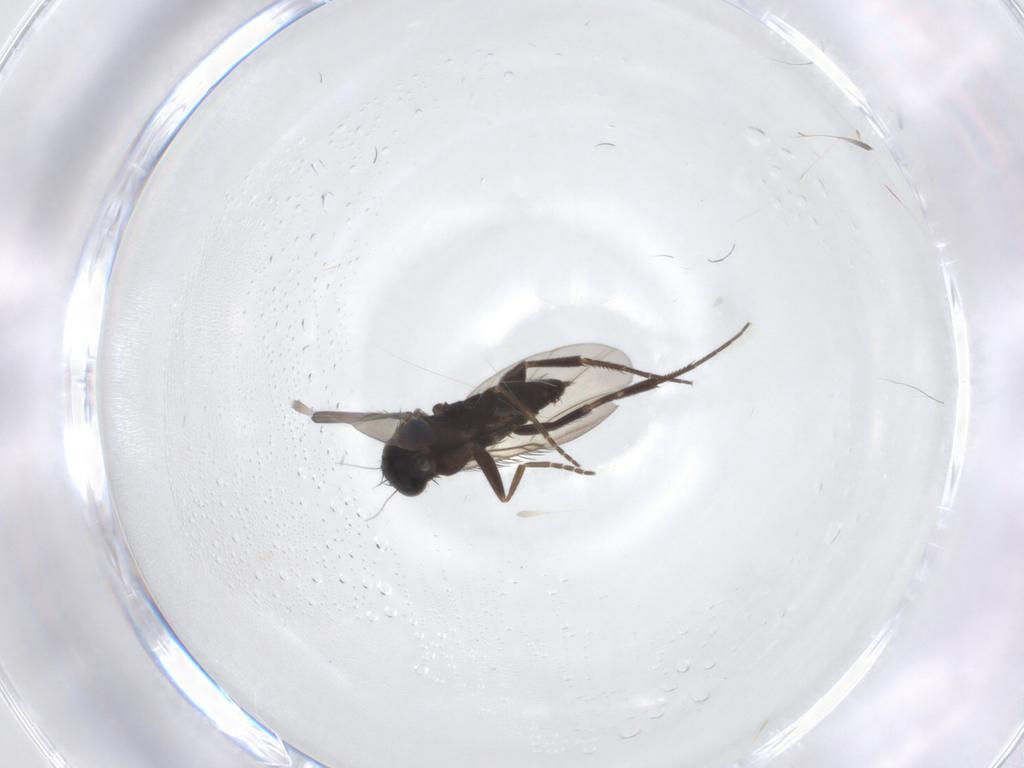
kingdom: Animalia
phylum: Arthropoda
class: Insecta
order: Diptera
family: Phoridae
